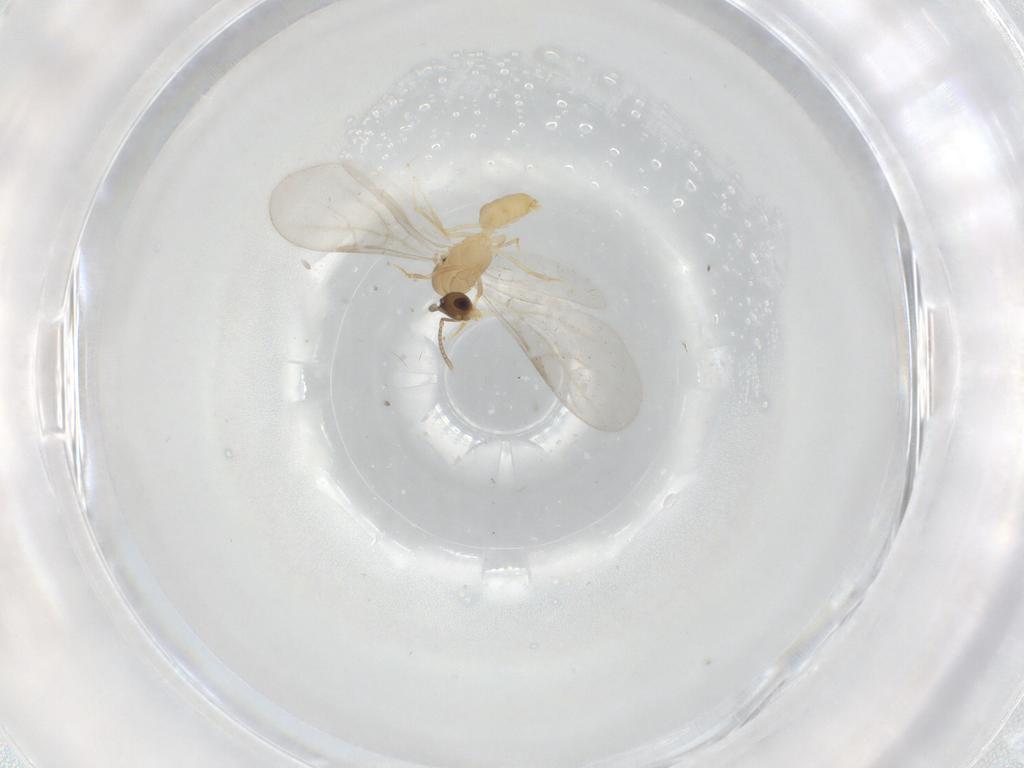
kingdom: Animalia
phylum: Arthropoda
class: Insecta
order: Hymenoptera
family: Formicidae
